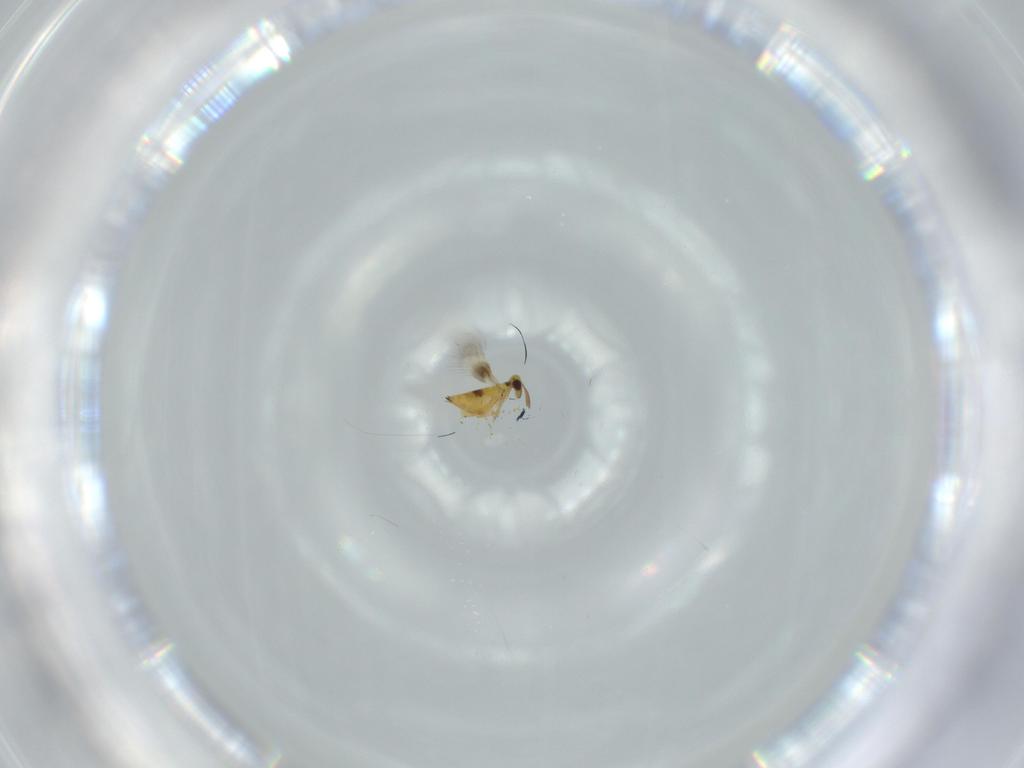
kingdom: Animalia
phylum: Arthropoda
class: Insecta
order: Hymenoptera
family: Signiphoridae
